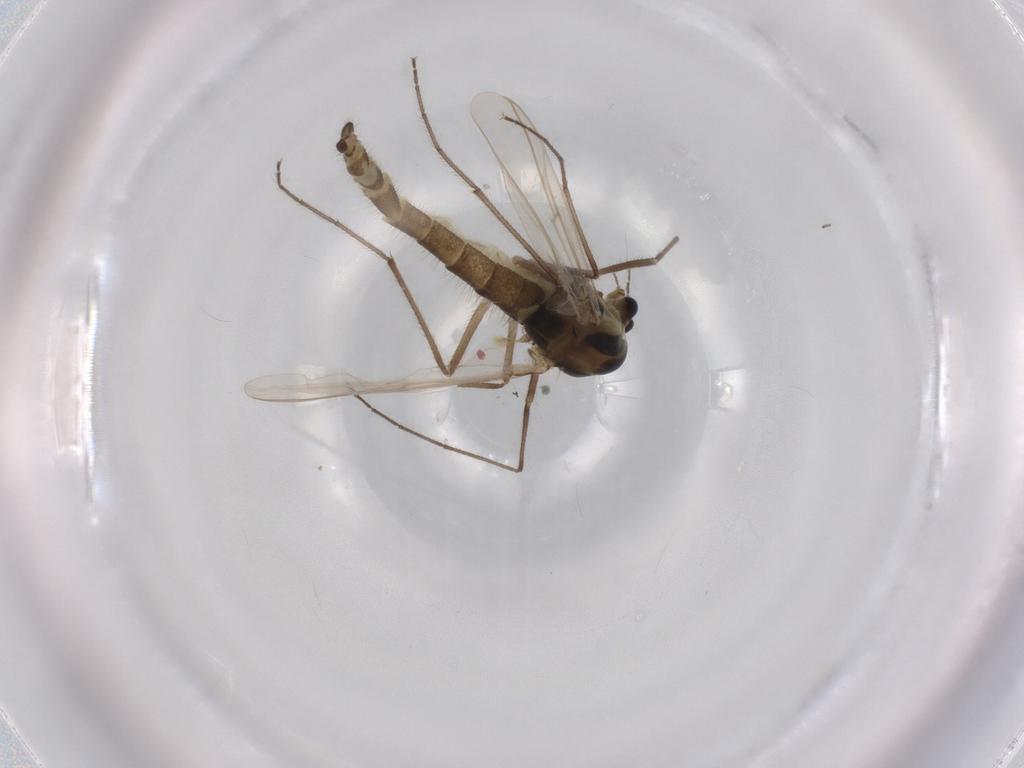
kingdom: Animalia
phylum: Arthropoda
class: Insecta
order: Diptera
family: Chironomidae
